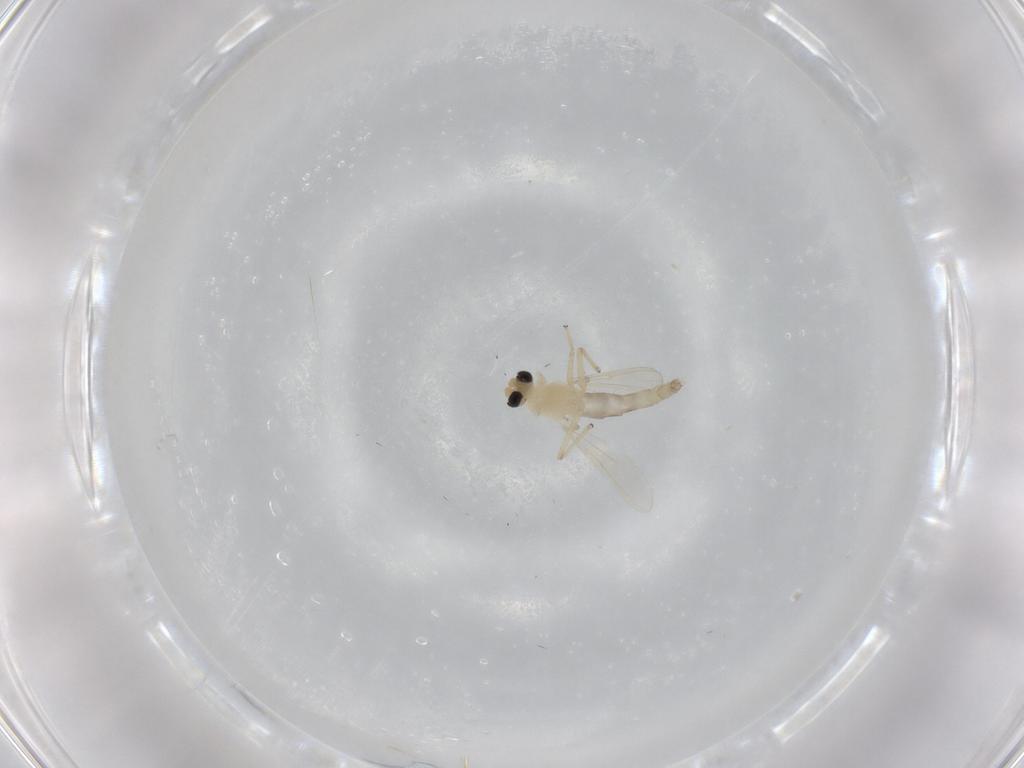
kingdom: Animalia
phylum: Arthropoda
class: Insecta
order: Diptera
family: Chironomidae
